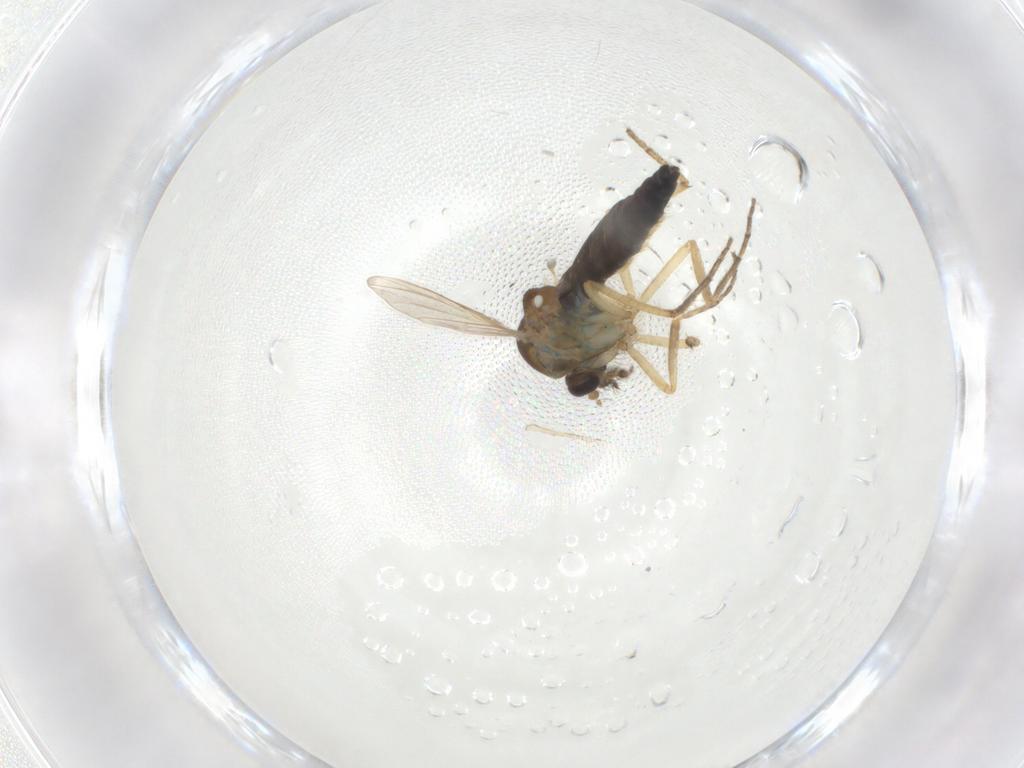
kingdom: Animalia
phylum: Arthropoda
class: Insecta
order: Diptera
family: Ceratopogonidae
